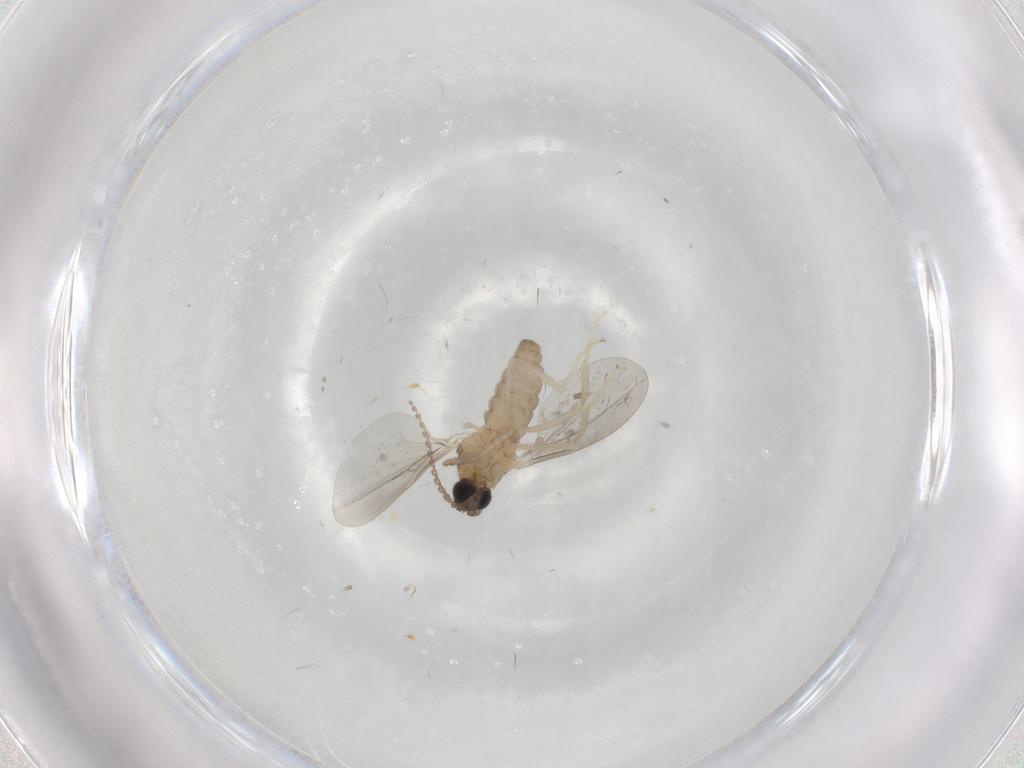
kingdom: Animalia
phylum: Arthropoda
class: Insecta
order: Diptera
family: Cecidomyiidae
